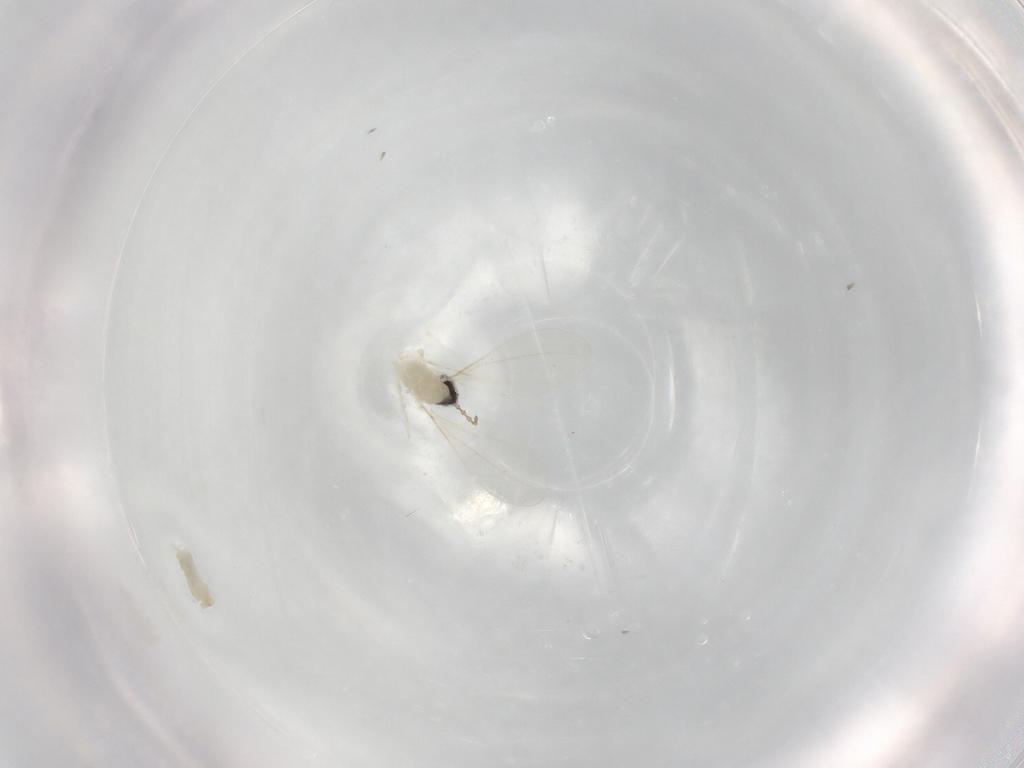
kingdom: Animalia
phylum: Arthropoda
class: Insecta
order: Diptera
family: Cecidomyiidae
